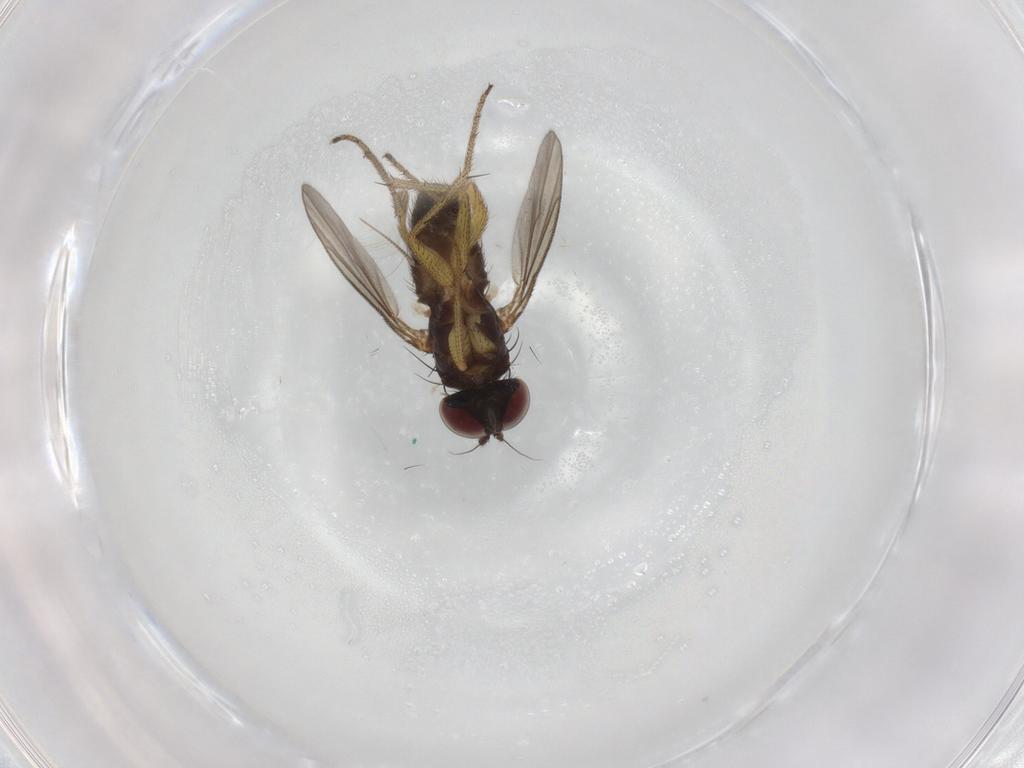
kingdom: Animalia
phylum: Arthropoda
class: Insecta
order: Diptera
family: Dolichopodidae
